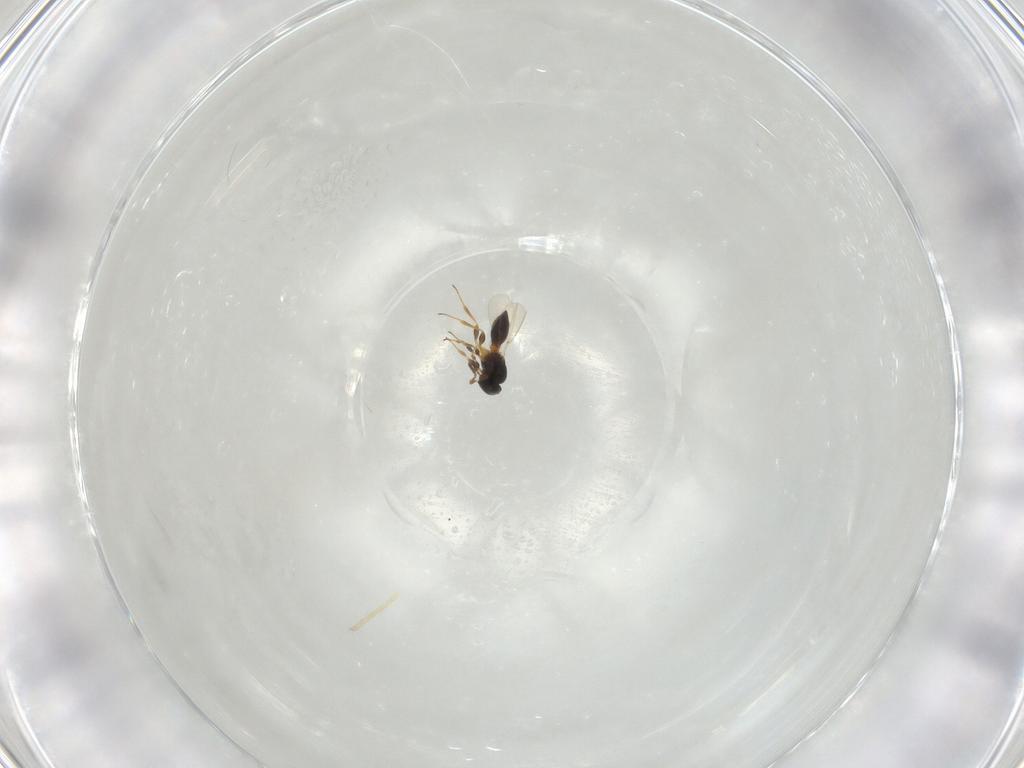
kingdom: Animalia
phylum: Arthropoda
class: Insecta
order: Hymenoptera
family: Platygastridae
